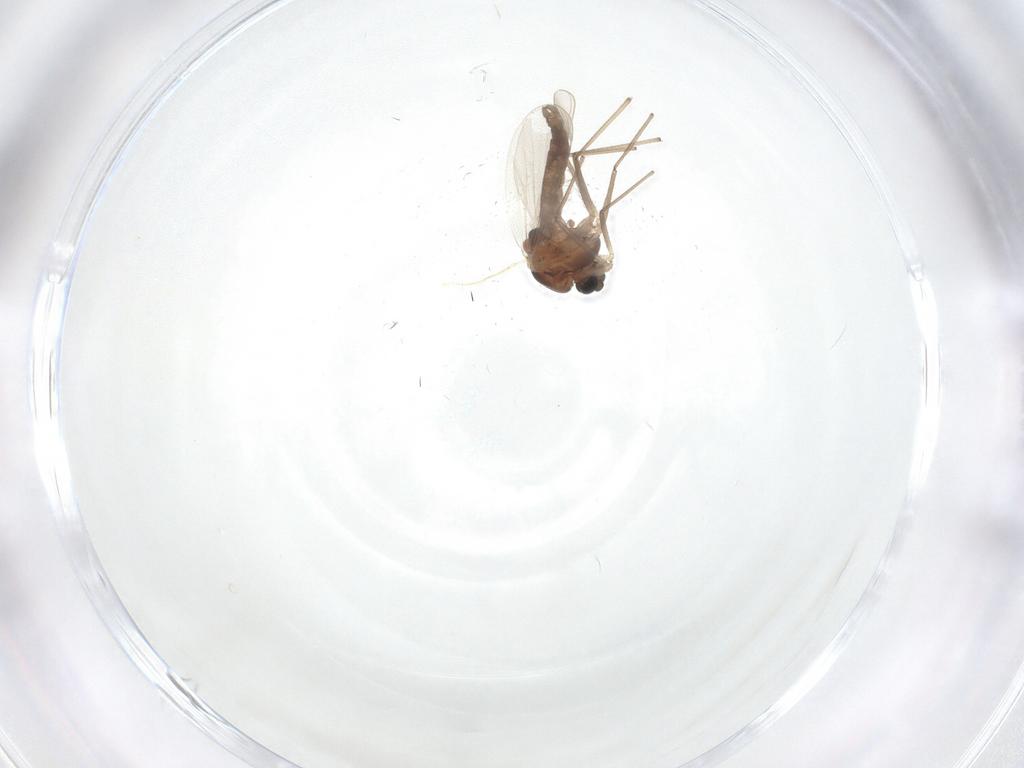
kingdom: Animalia
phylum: Arthropoda
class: Insecta
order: Diptera
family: Chironomidae
